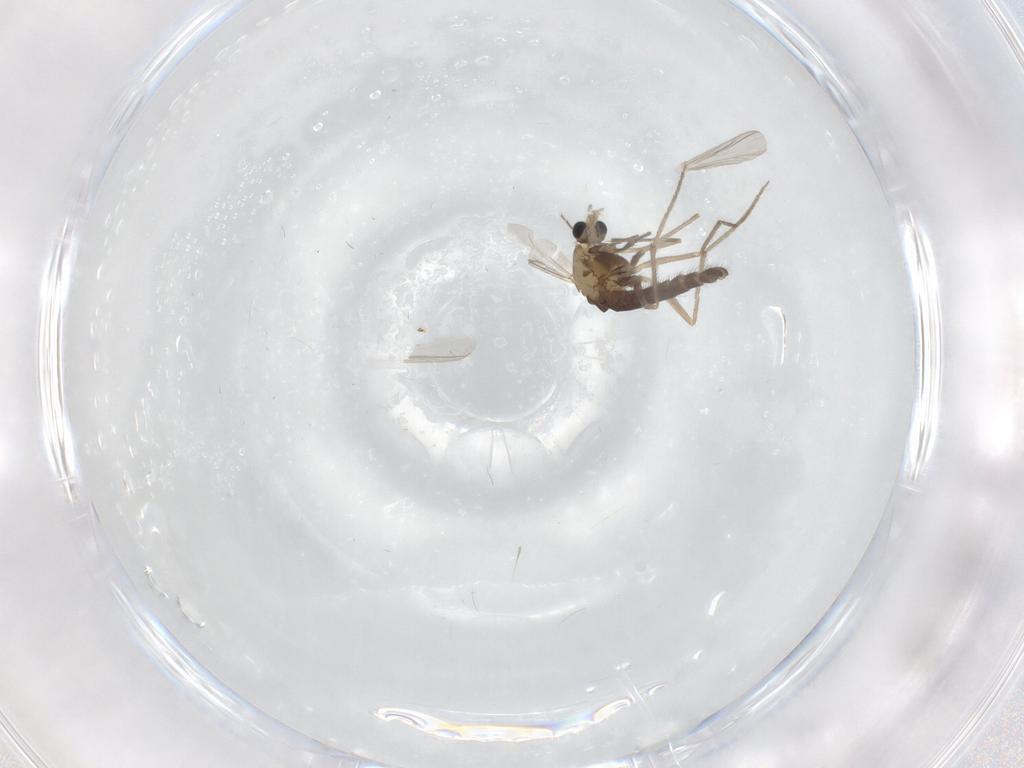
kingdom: Animalia
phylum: Arthropoda
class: Insecta
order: Diptera
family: Chironomidae
